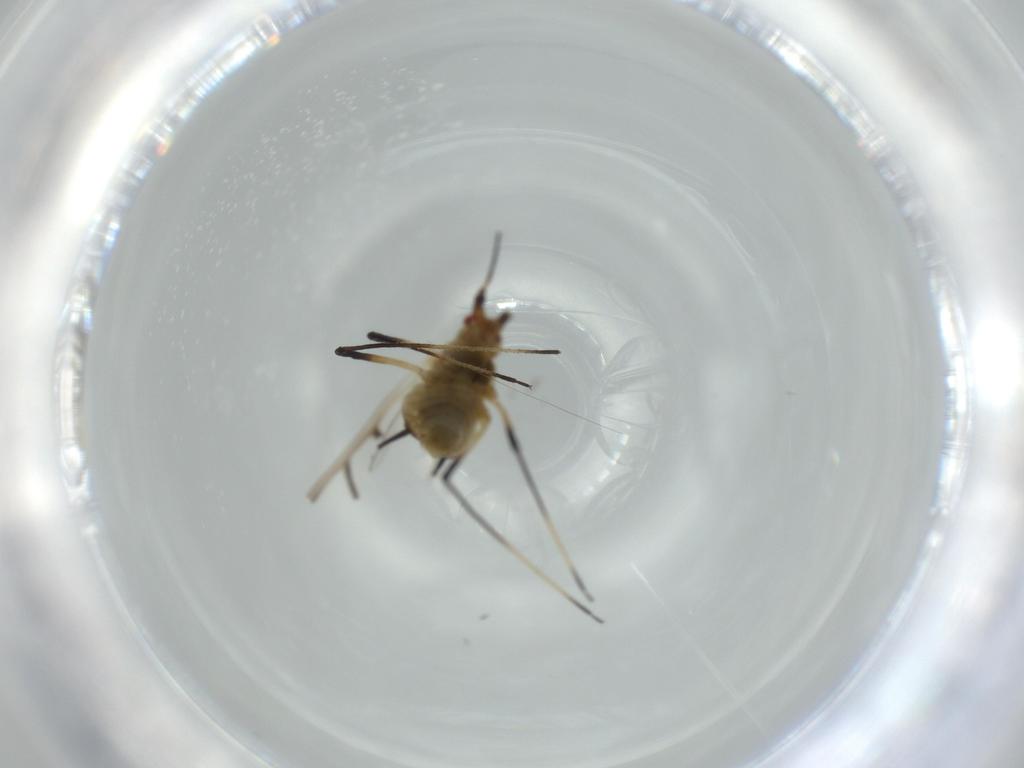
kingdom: Animalia
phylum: Arthropoda
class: Insecta
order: Hemiptera
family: Aphididae
